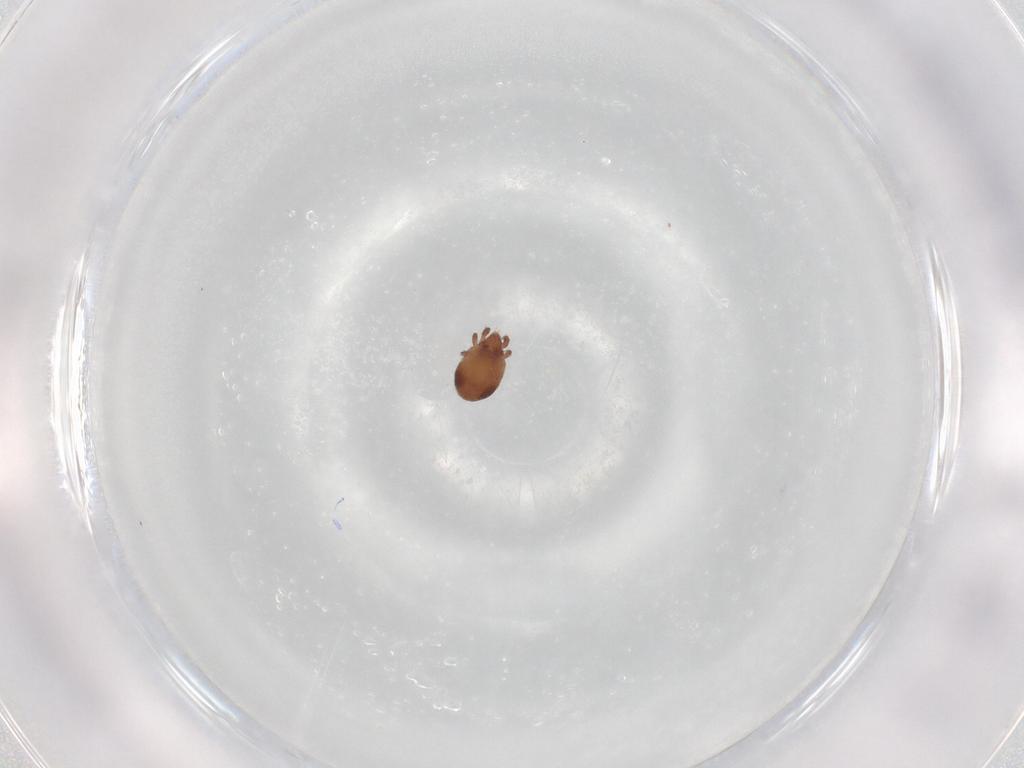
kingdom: Animalia
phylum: Arthropoda
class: Arachnida
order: Sarcoptiformes
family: Trhypochthoniidae
